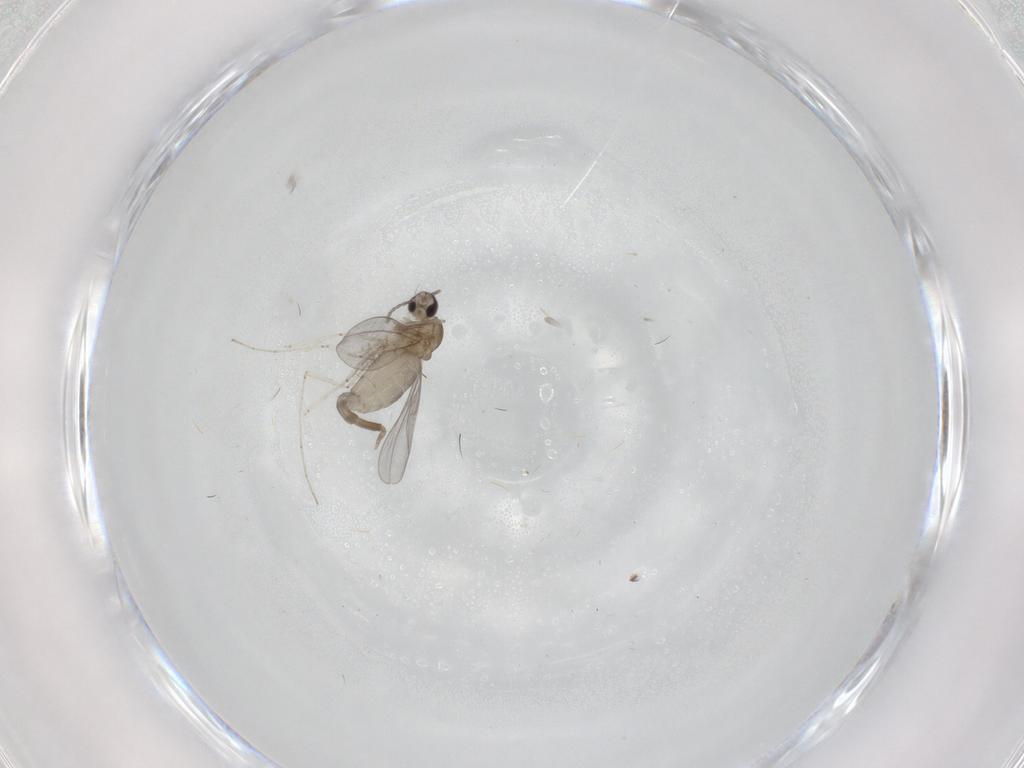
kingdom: Animalia
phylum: Arthropoda
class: Insecta
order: Diptera
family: Cecidomyiidae
